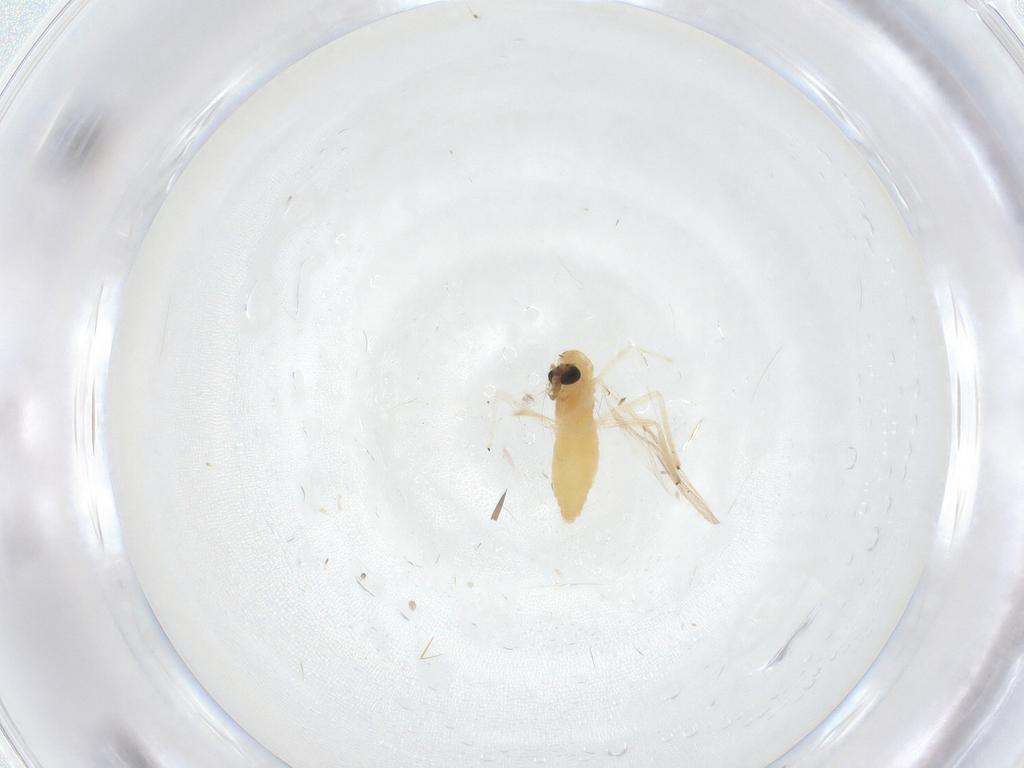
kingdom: Animalia
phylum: Arthropoda
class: Insecta
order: Diptera
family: Chironomidae
